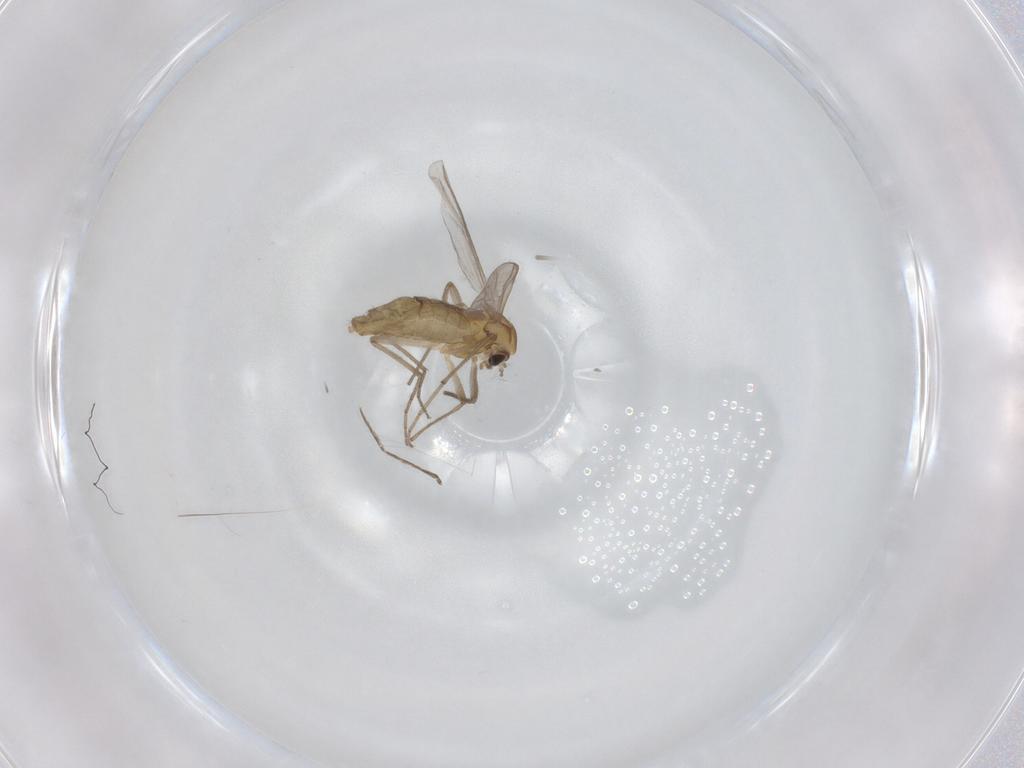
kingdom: Animalia
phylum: Arthropoda
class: Insecta
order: Diptera
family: Chironomidae
